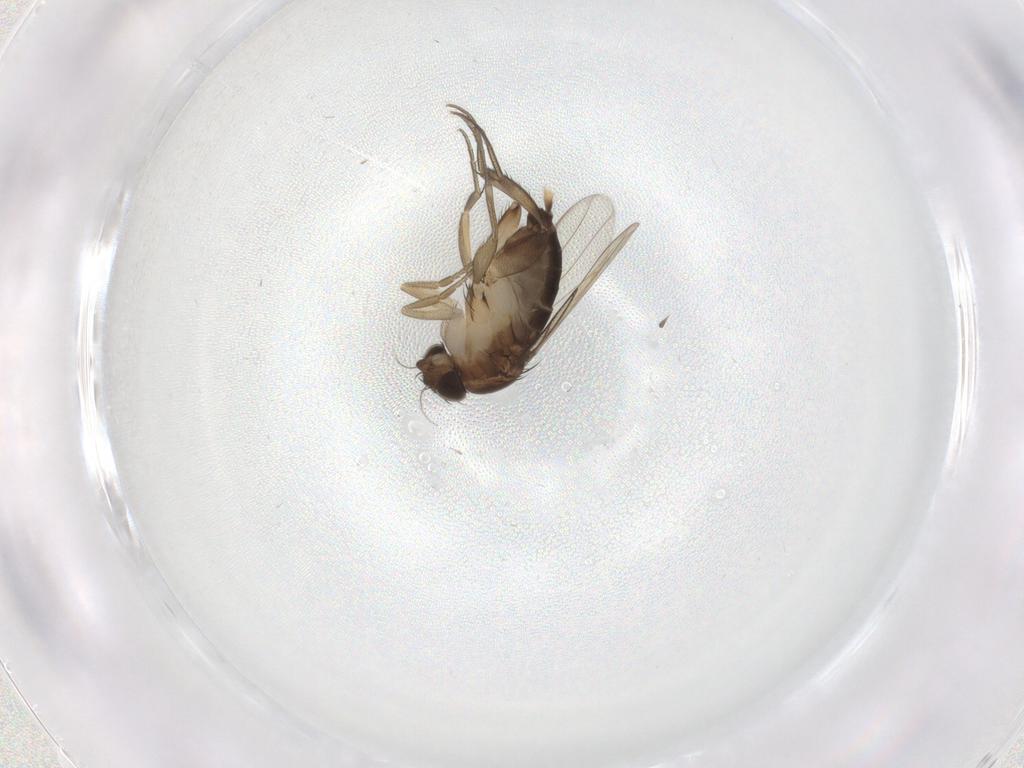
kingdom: Animalia
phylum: Arthropoda
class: Insecta
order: Diptera
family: Phoridae
